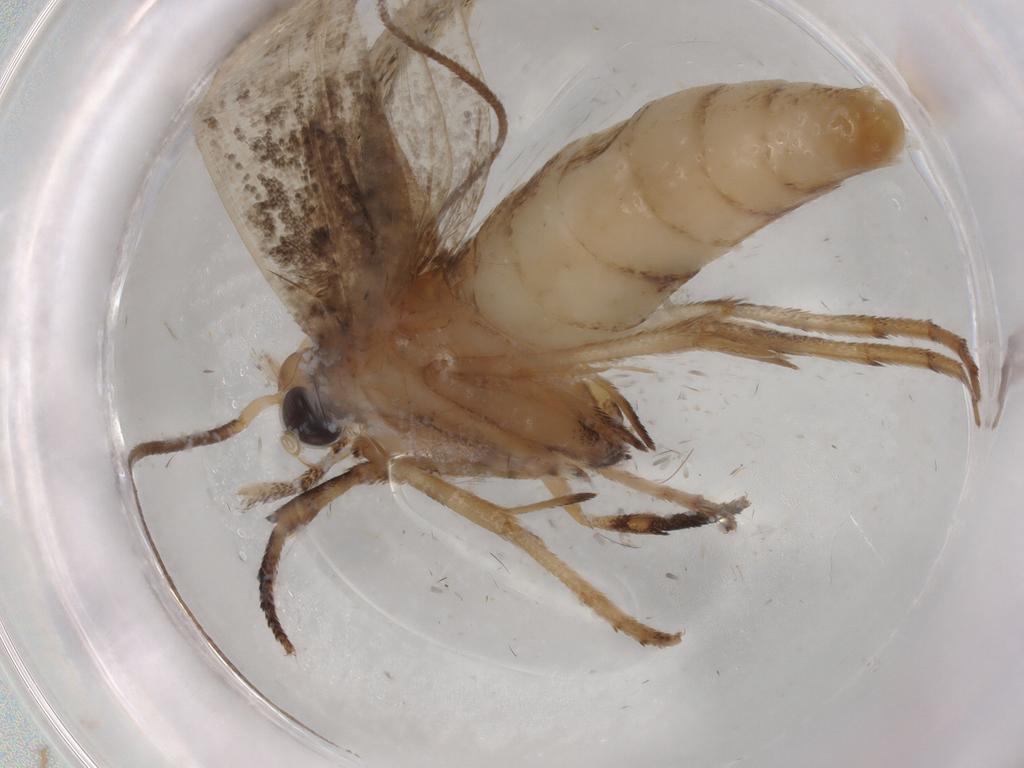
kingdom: Animalia
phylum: Arthropoda
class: Insecta
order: Lepidoptera
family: Yponomeutidae
